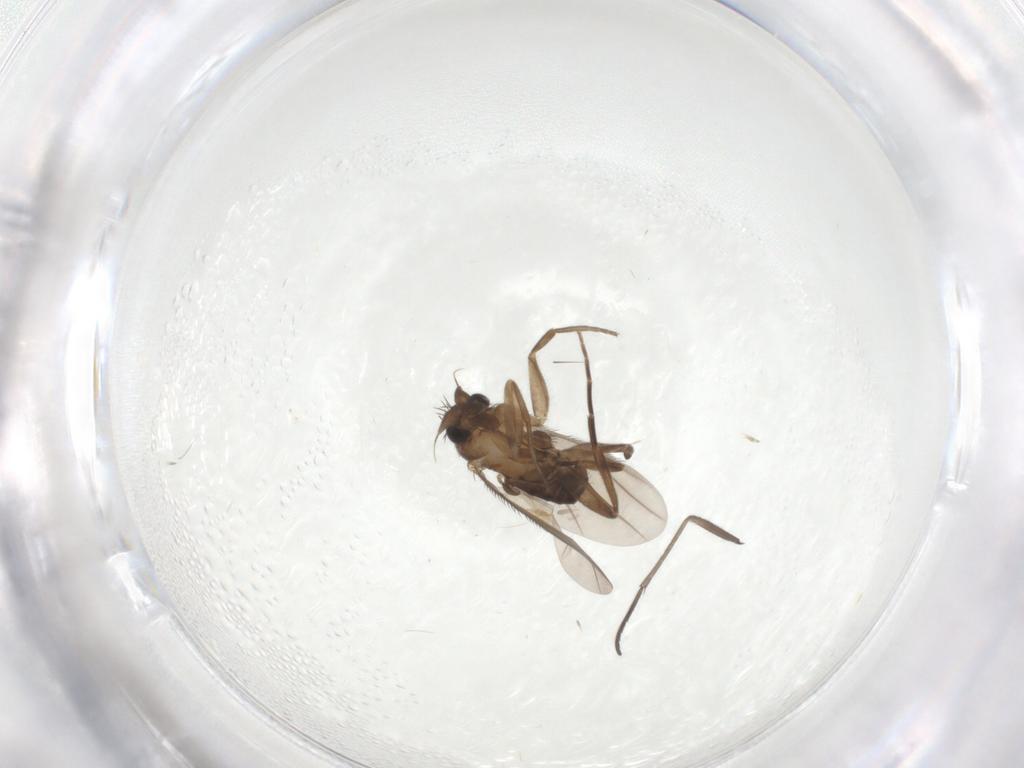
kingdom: Animalia
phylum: Arthropoda
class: Insecta
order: Diptera
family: Phoridae
